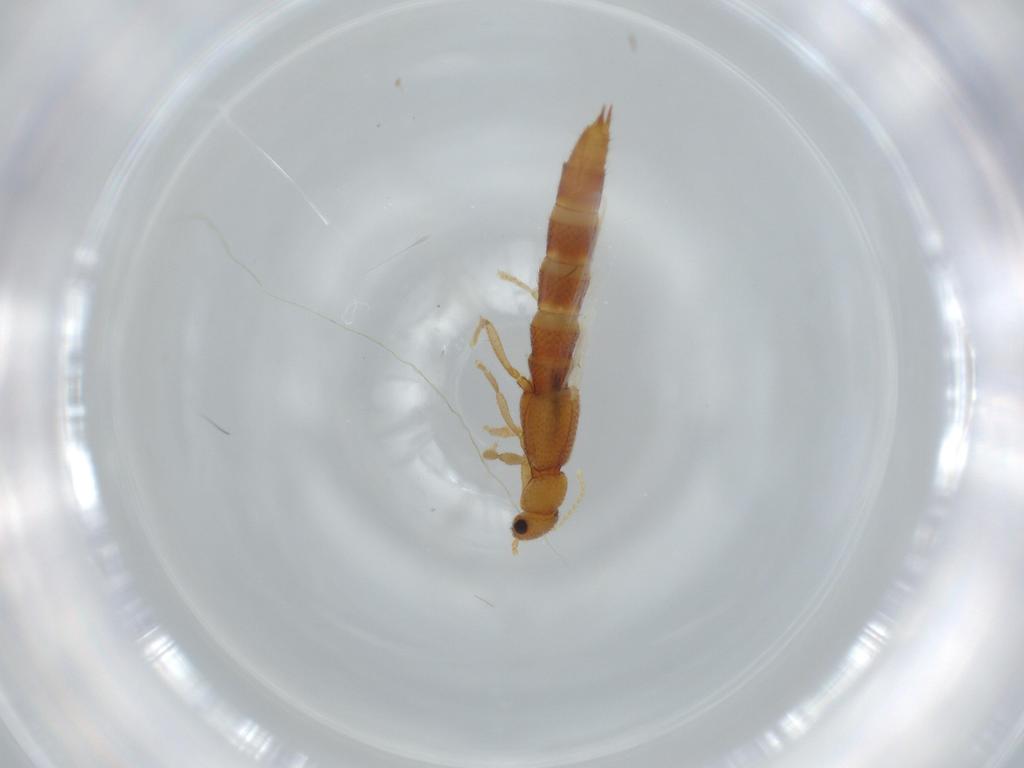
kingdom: Animalia
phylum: Arthropoda
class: Insecta
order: Coleoptera
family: Staphylinidae
